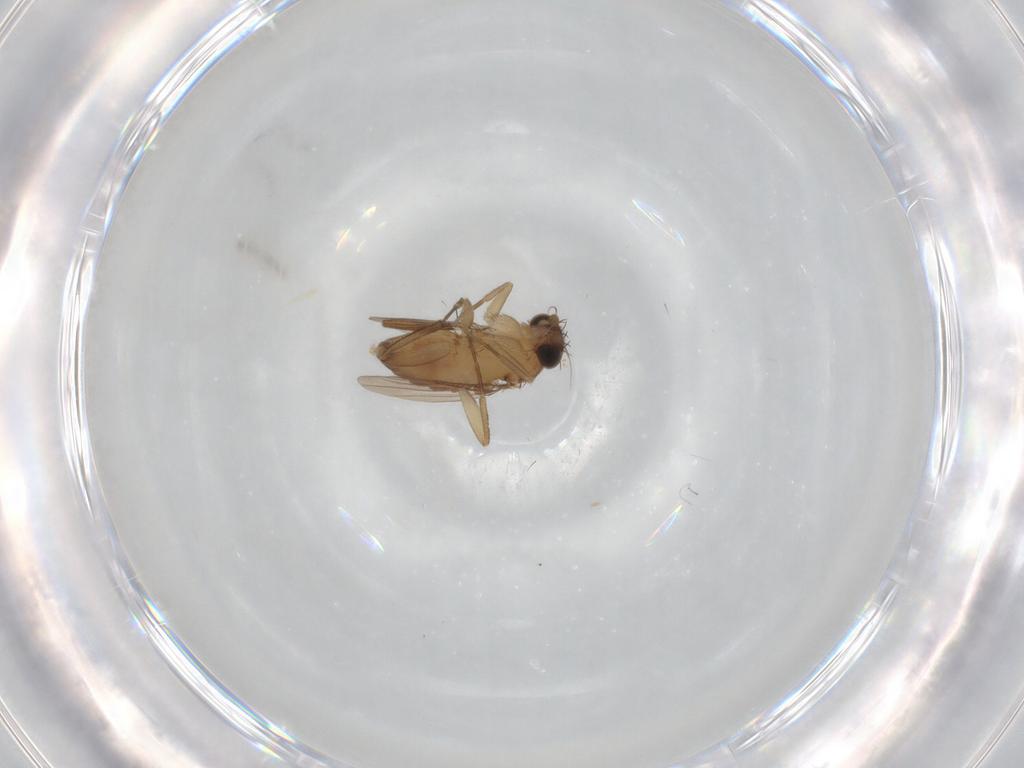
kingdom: Animalia
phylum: Arthropoda
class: Insecta
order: Diptera
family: Phoridae
